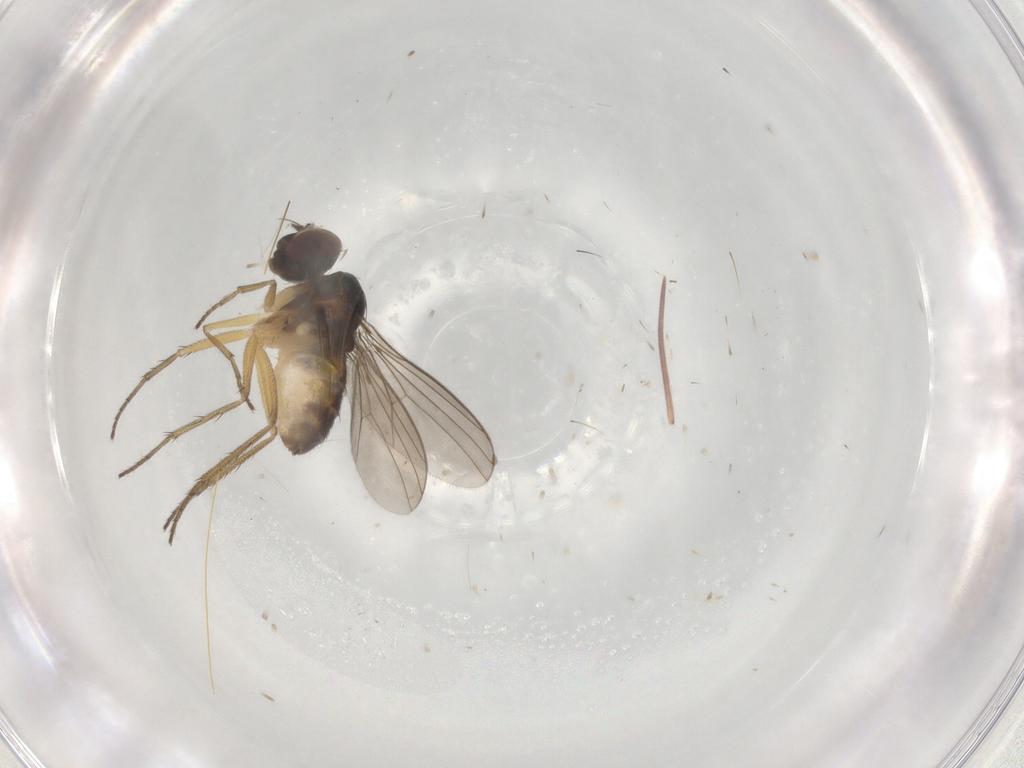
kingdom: Animalia
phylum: Arthropoda
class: Insecta
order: Diptera
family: Dolichopodidae
